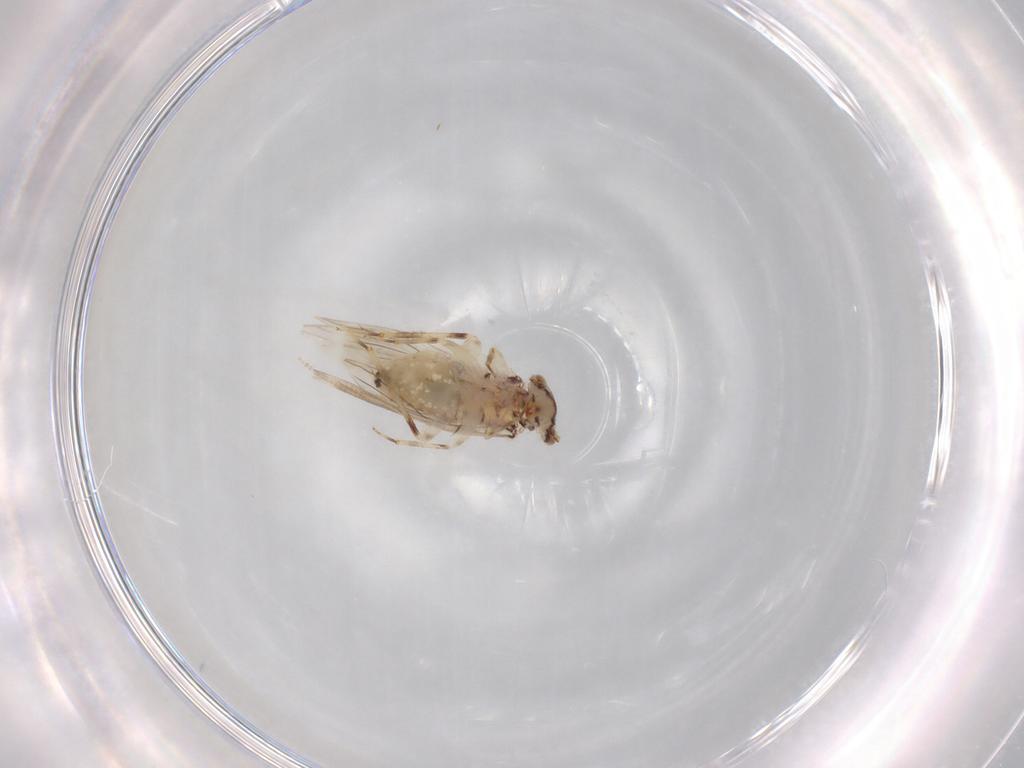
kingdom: Animalia
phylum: Arthropoda
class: Insecta
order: Psocodea
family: Lepidopsocidae
